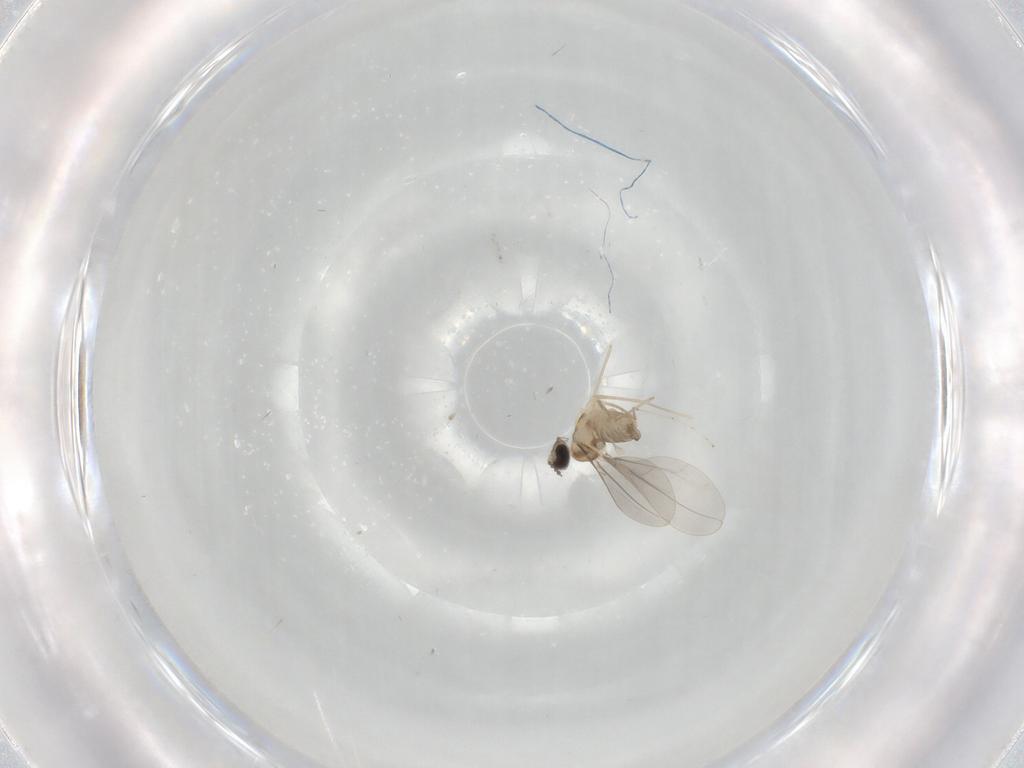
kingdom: Animalia
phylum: Arthropoda
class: Insecta
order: Diptera
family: Cecidomyiidae
